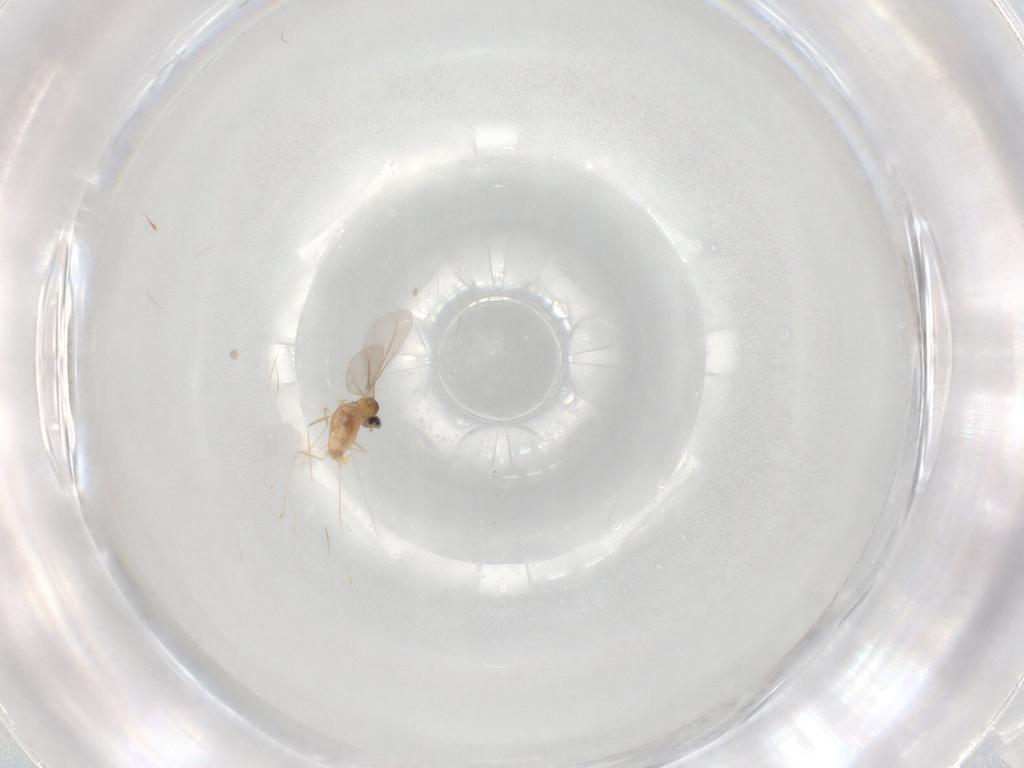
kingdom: Animalia
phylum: Arthropoda
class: Insecta
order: Diptera
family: Cecidomyiidae
